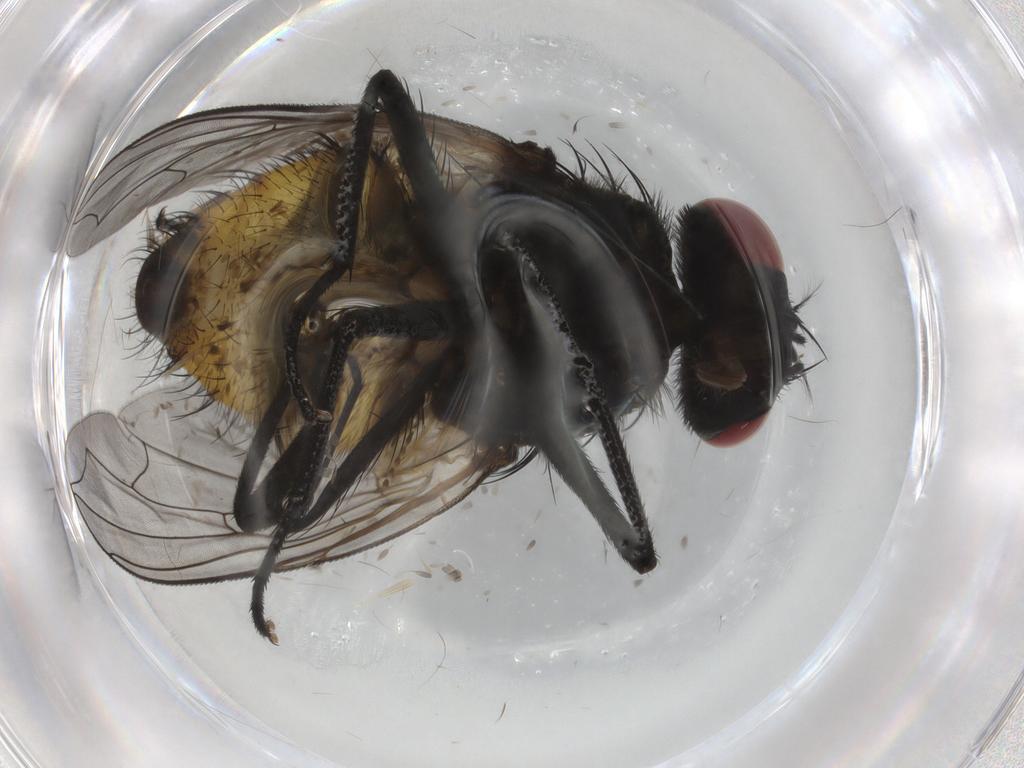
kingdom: Animalia
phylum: Arthropoda
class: Insecta
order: Diptera
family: Muscidae
